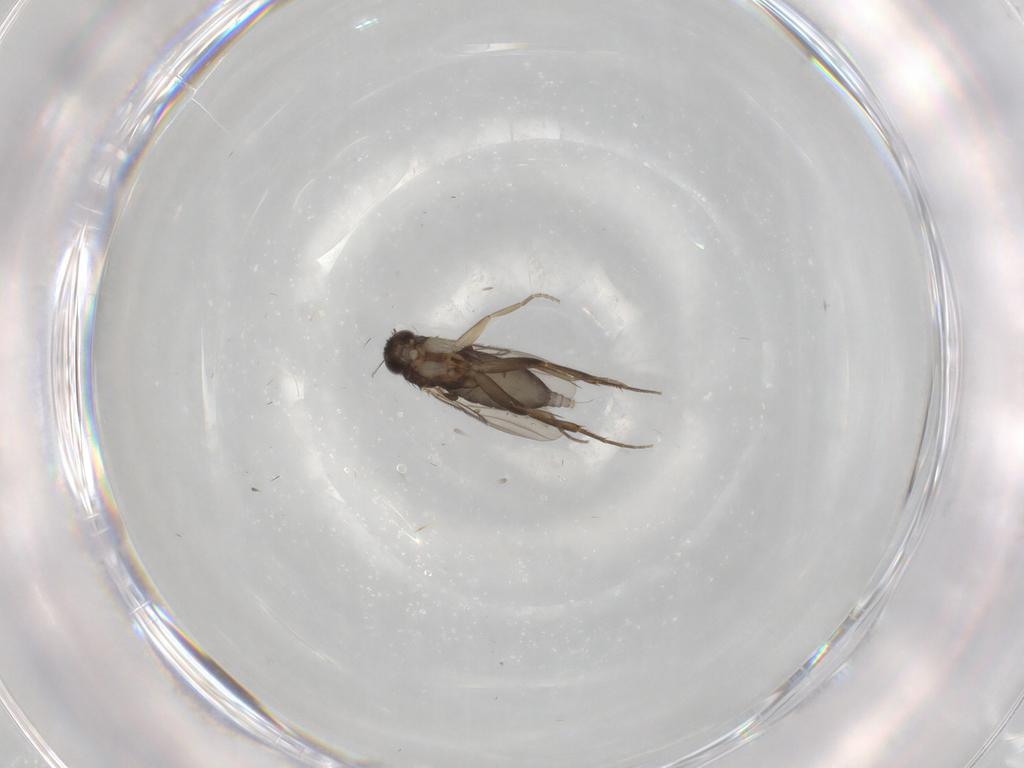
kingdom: Animalia
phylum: Arthropoda
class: Insecta
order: Diptera
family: Phoridae
